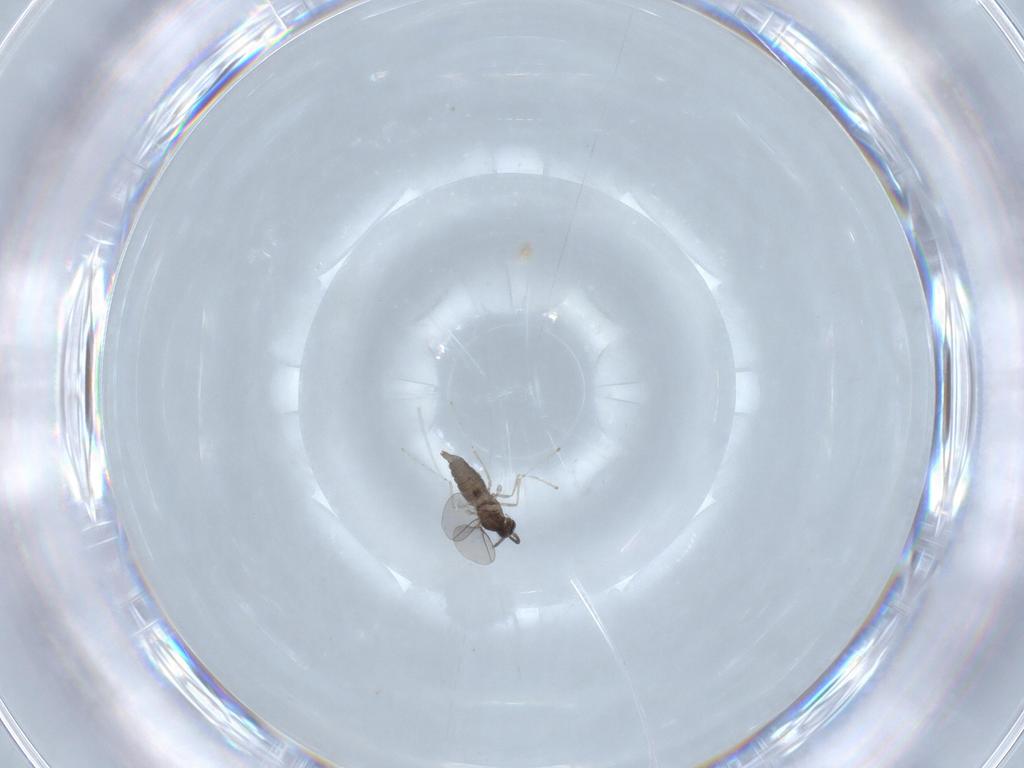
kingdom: Animalia
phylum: Arthropoda
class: Insecta
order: Diptera
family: Cecidomyiidae
